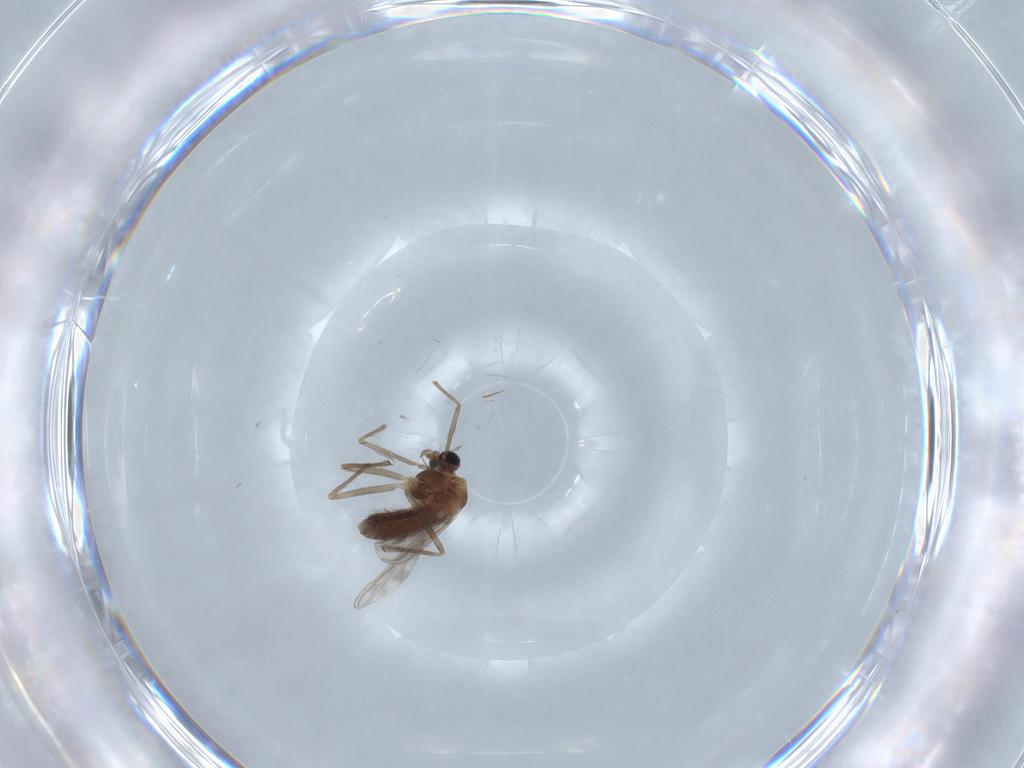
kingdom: Animalia
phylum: Arthropoda
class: Insecta
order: Diptera
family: Chironomidae
